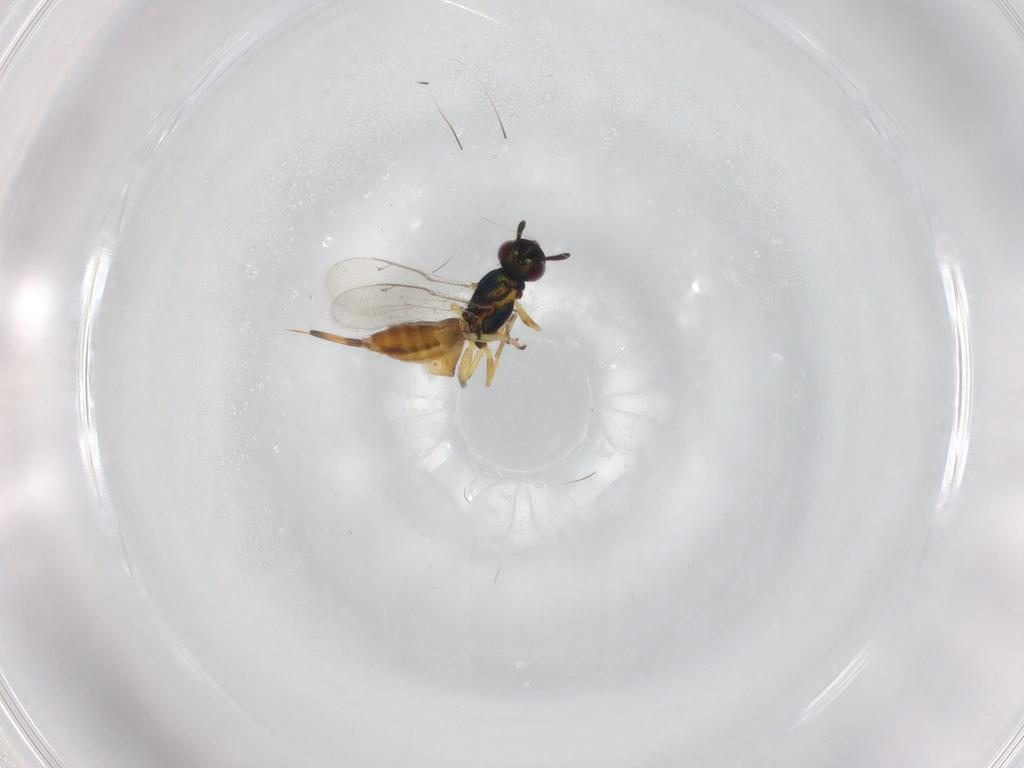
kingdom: Animalia
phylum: Arthropoda
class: Insecta
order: Hymenoptera
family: Eupelmidae
